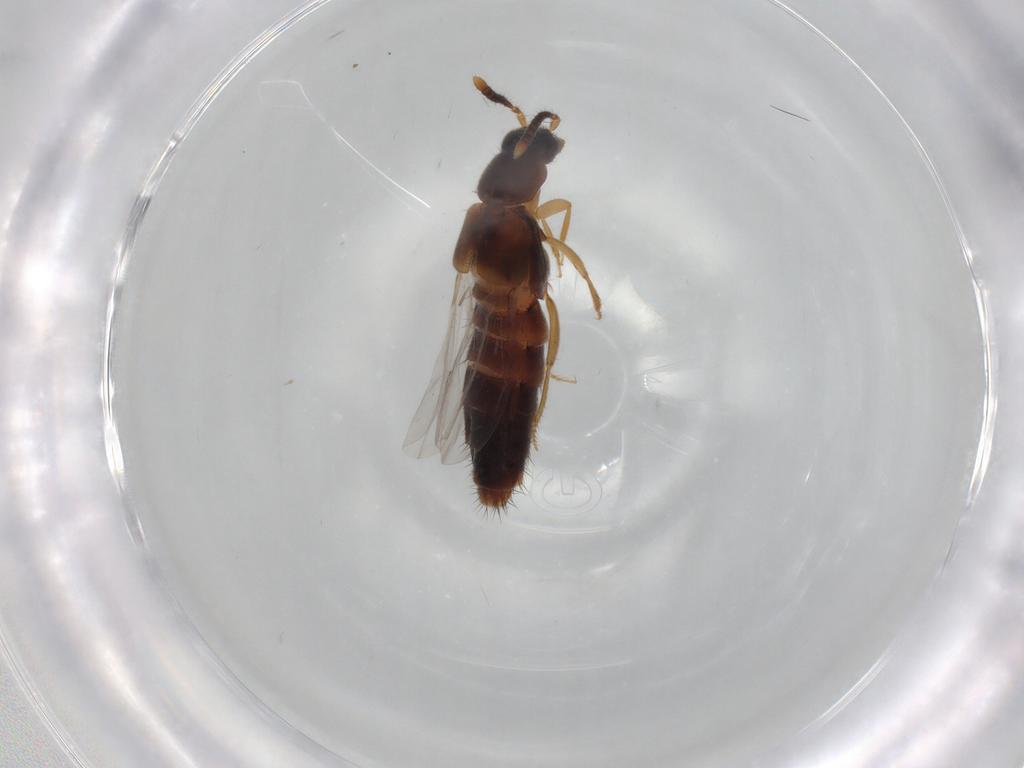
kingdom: Animalia
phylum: Arthropoda
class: Insecta
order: Coleoptera
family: Staphylinidae
